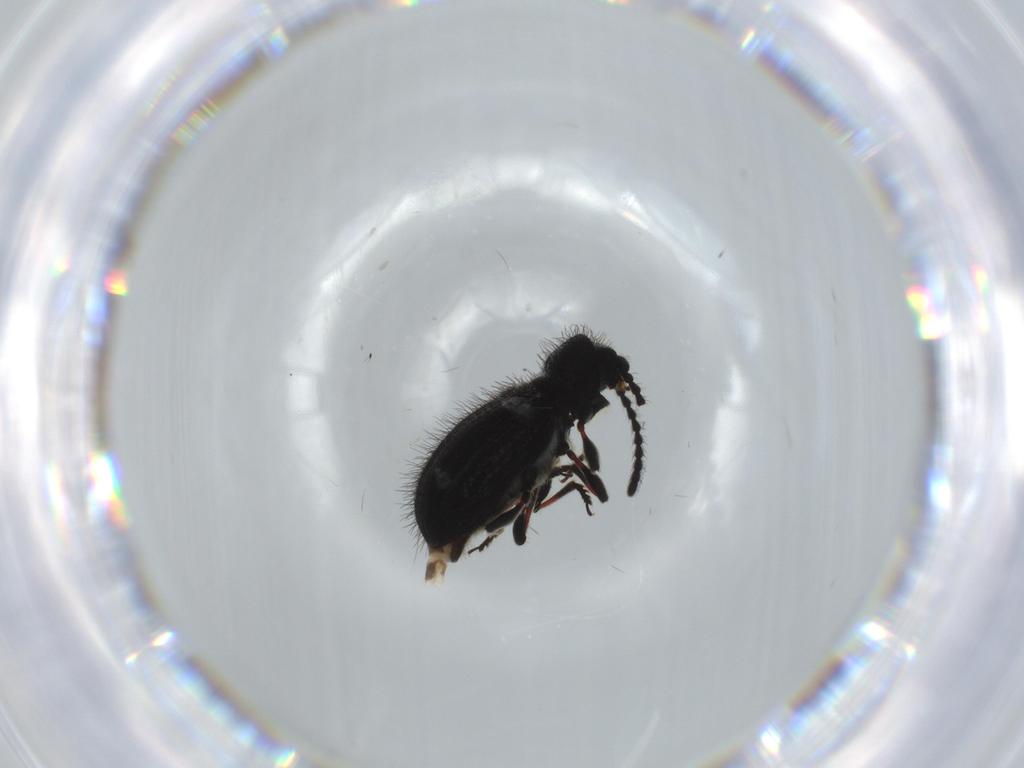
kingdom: Animalia
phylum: Arthropoda
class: Insecta
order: Coleoptera
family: Ptinidae
